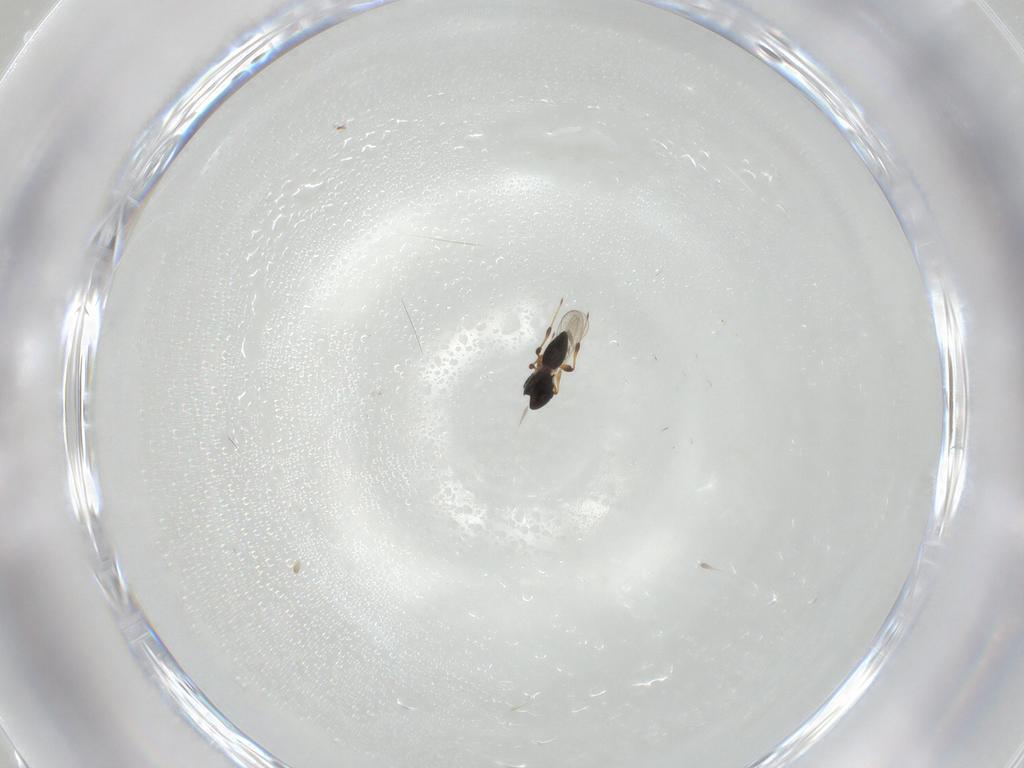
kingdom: Animalia
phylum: Arthropoda
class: Insecta
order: Hymenoptera
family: Platygastridae
